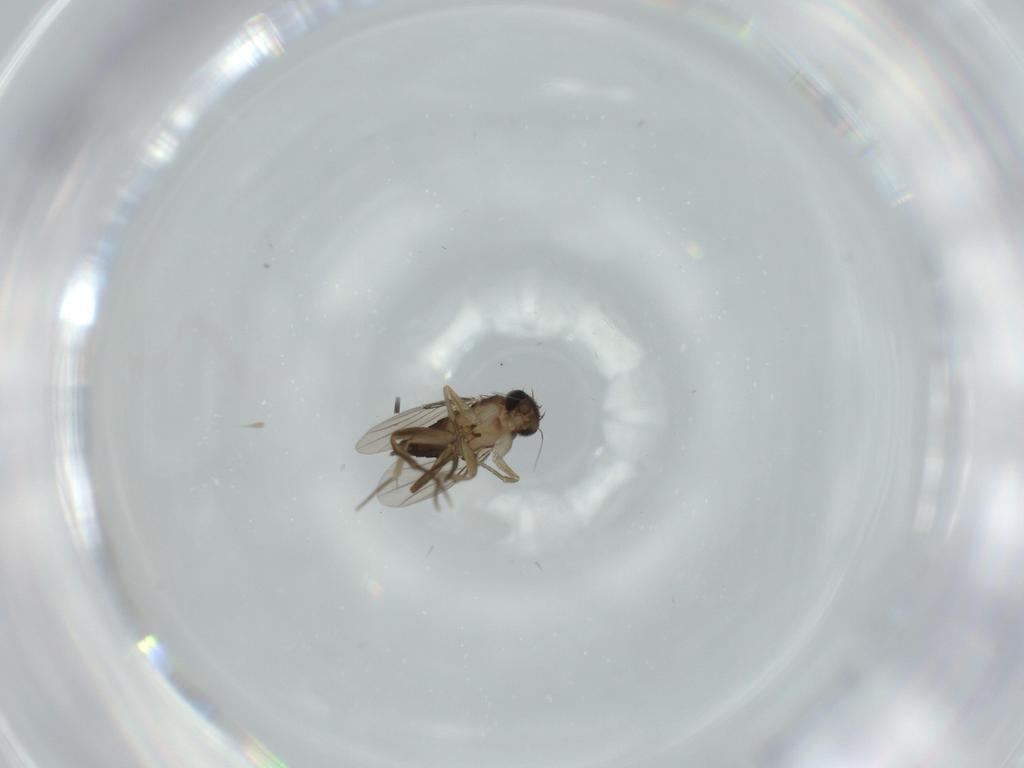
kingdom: Animalia
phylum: Arthropoda
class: Insecta
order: Diptera
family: Phoridae
